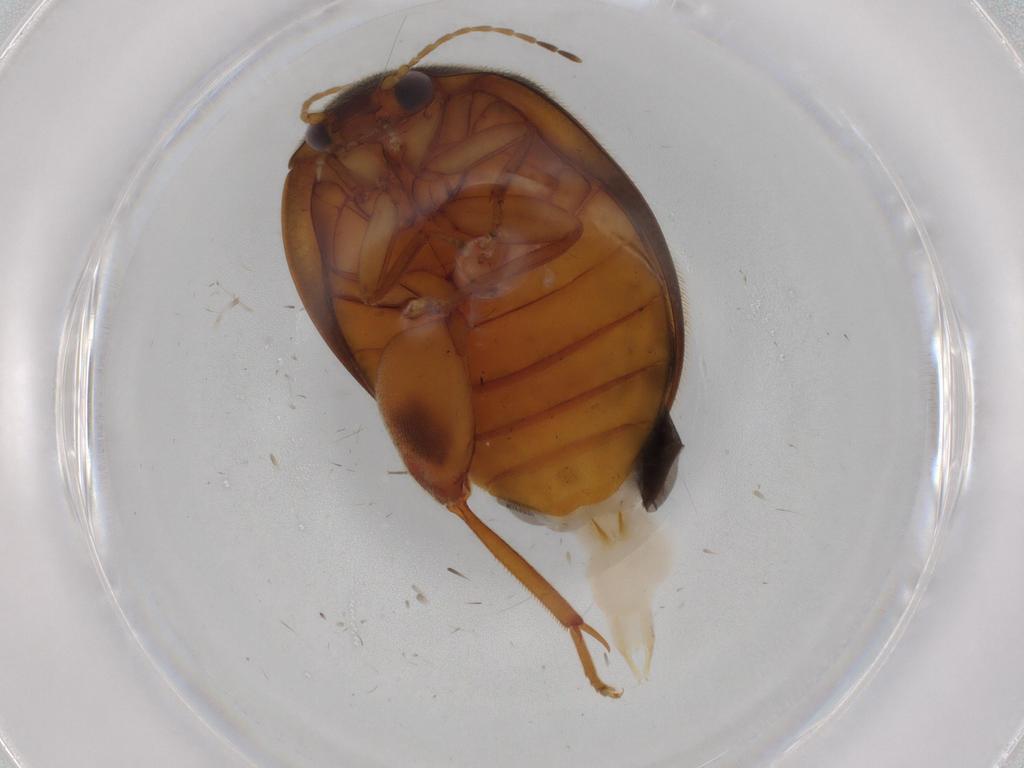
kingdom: Animalia
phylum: Arthropoda
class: Insecta
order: Coleoptera
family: Scirtidae
